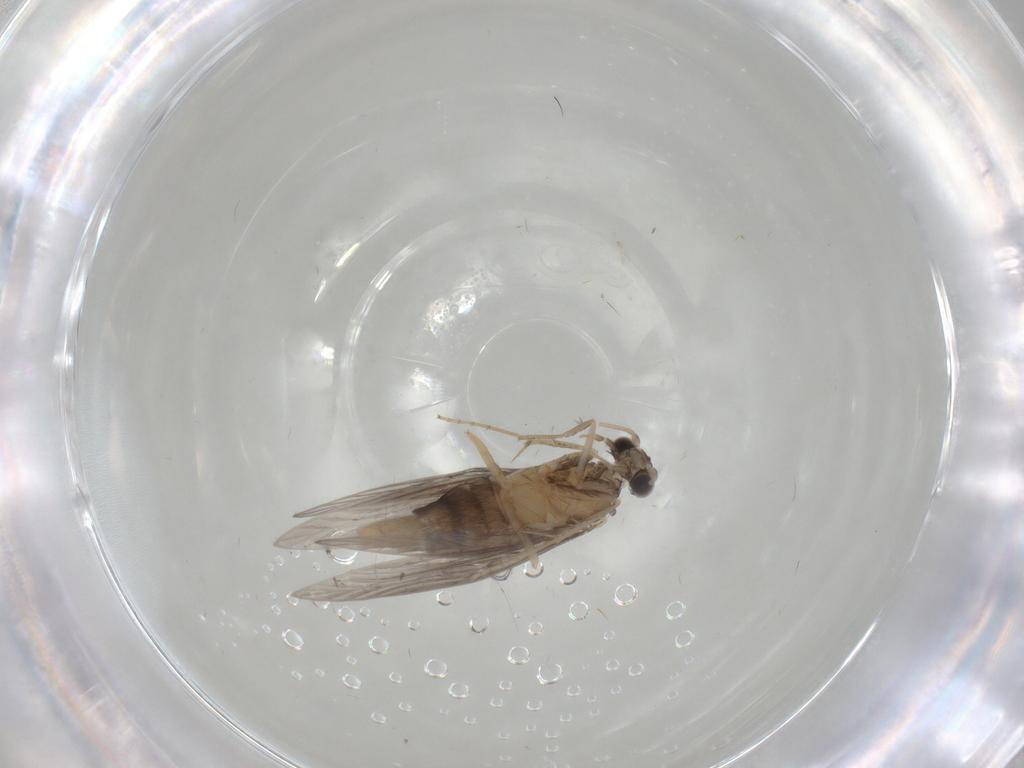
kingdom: Animalia
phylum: Arthropoda
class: Insecta
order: Trichoptera
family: Hydroptilidae
